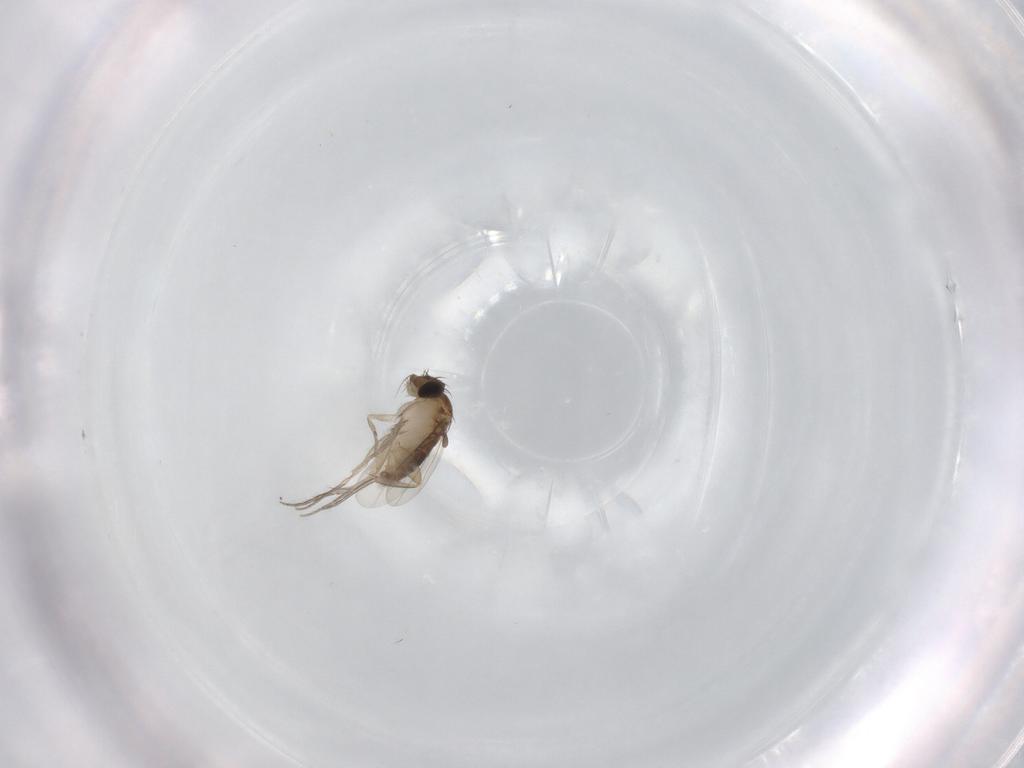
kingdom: Animalia
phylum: Arthropoda
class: Insecta
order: Diptera
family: Phoridae
